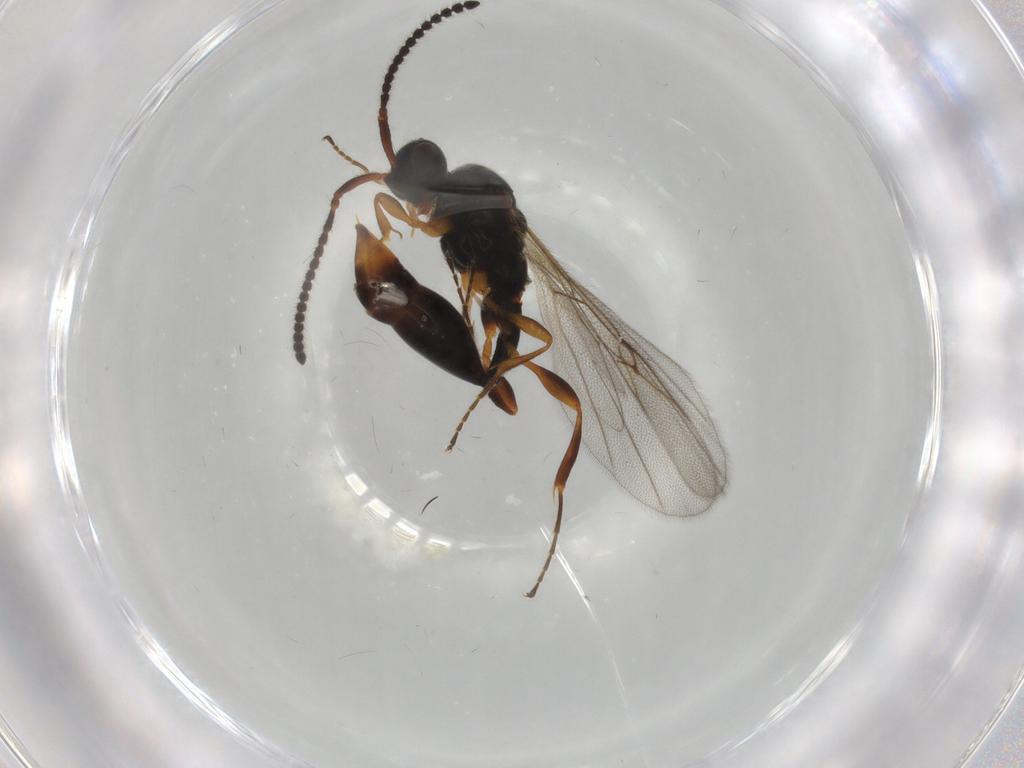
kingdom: Animalia
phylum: Arthropoda
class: Insecta
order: Hymenoptera
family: Diapriidae
